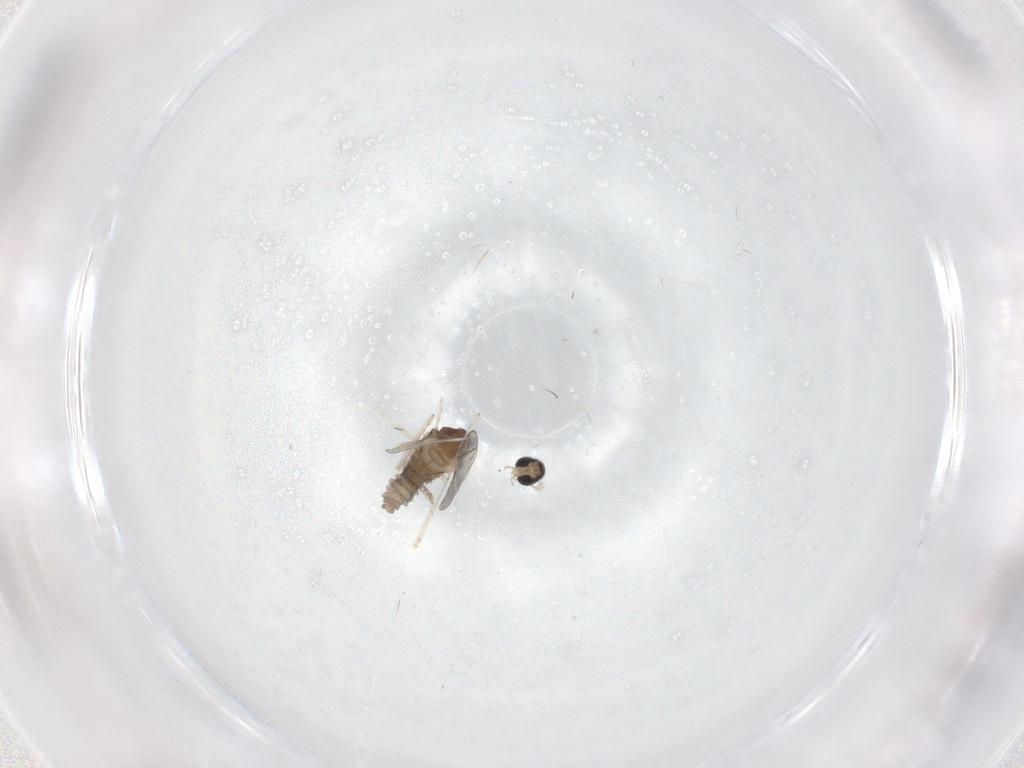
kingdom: Animalia
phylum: Arthropoda
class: Insecta
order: Diptera
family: Cecidomyiidae
